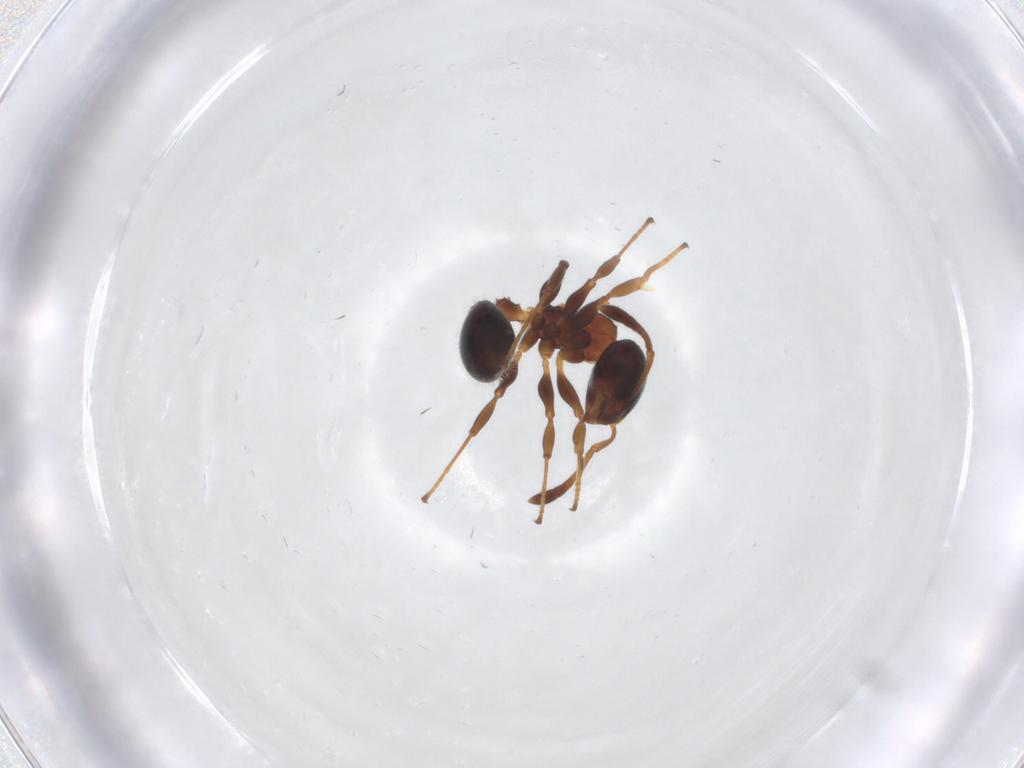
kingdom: Animalia
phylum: Arthropoda
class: Insecta
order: Hymenoptera
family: Formicidae
